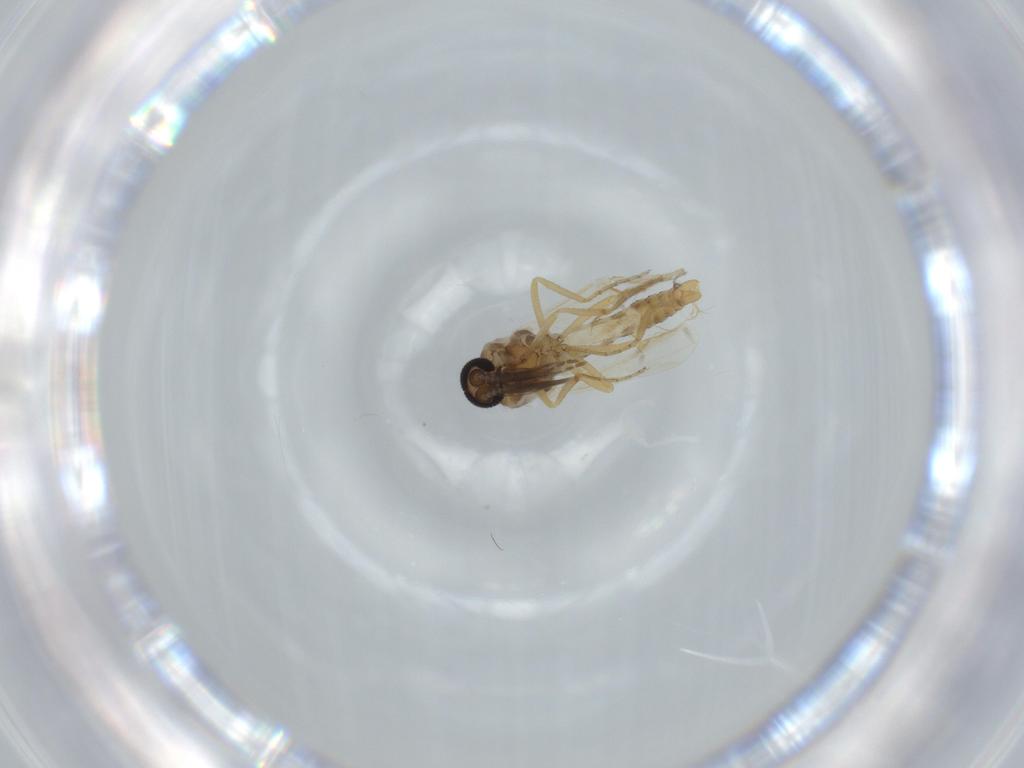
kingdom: Animalia
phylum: Arthropoda
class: Insecta
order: Diptera
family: Ceratopogonidae
